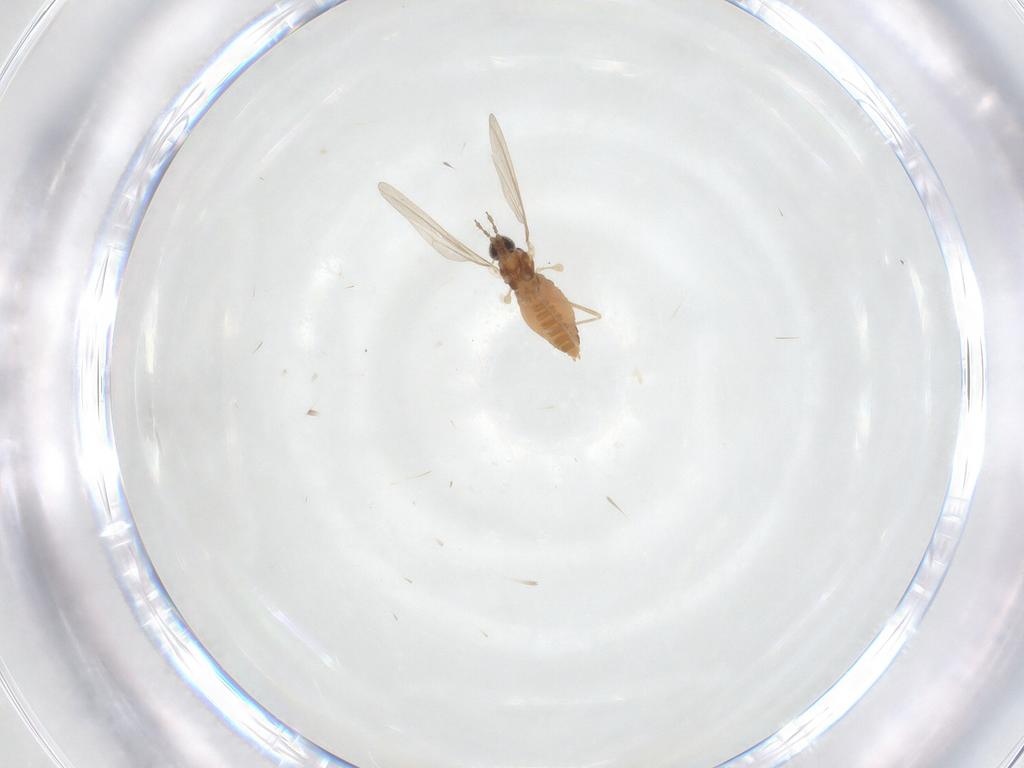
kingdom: Animalia
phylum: Arthropoda
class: Insecta
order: Diptera
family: Cecidomyiidae
